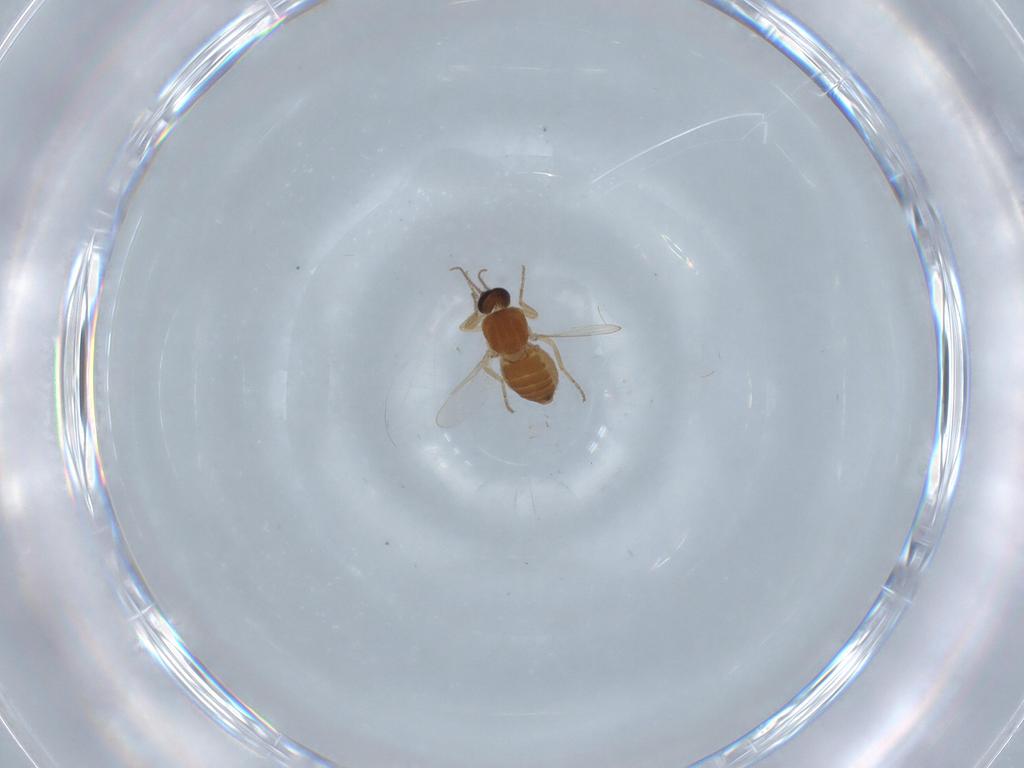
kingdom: Animalia
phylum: Arthropoda
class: Insecta
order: Diptera
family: Ceratopogonidae
